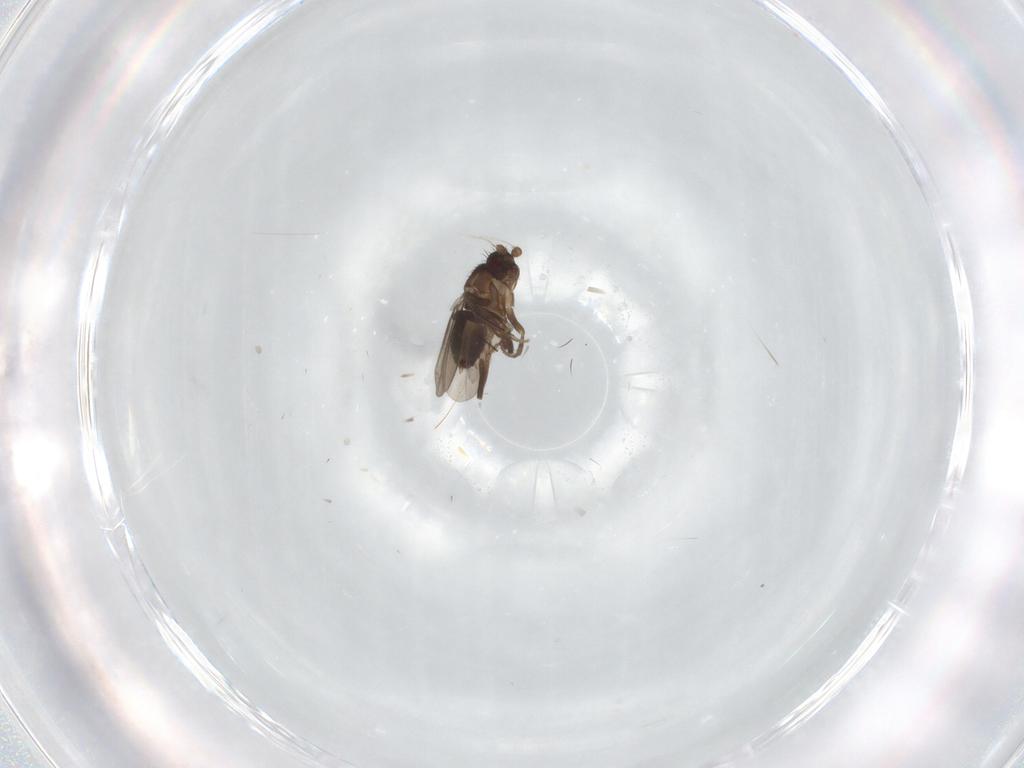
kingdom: Animalia
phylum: Arthropoda
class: Insecta
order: Diptera
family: Sphaeroceridae
